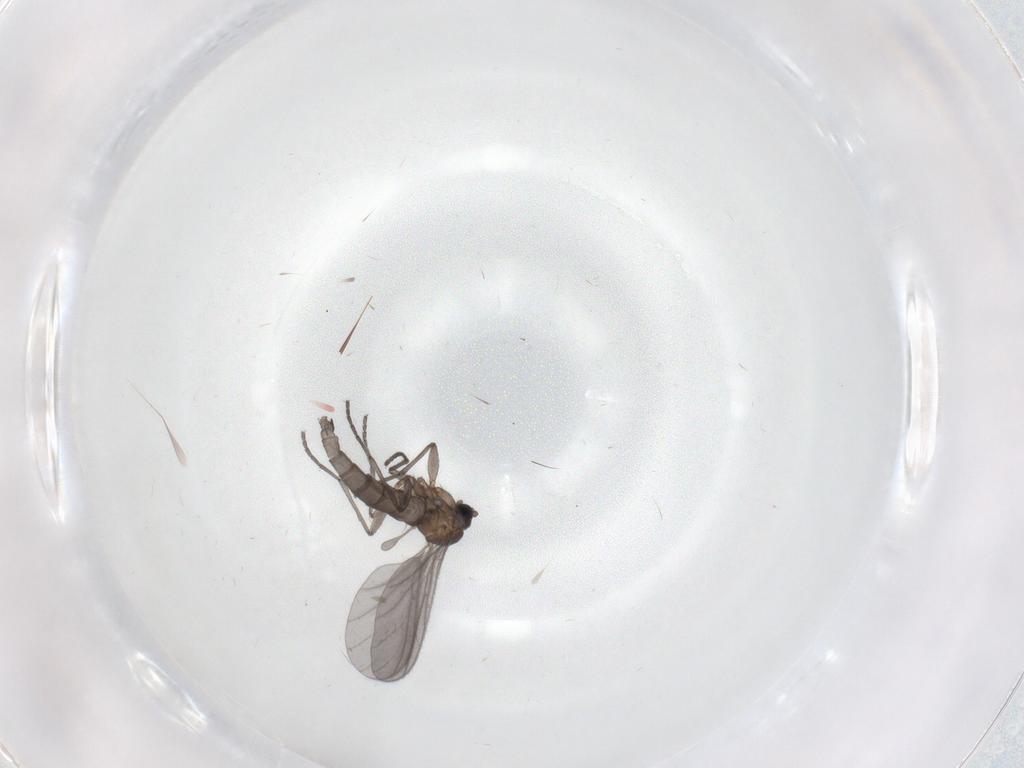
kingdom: Animalia
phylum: Arthropoda
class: Insecta
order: Diptera
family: Sciaridae
